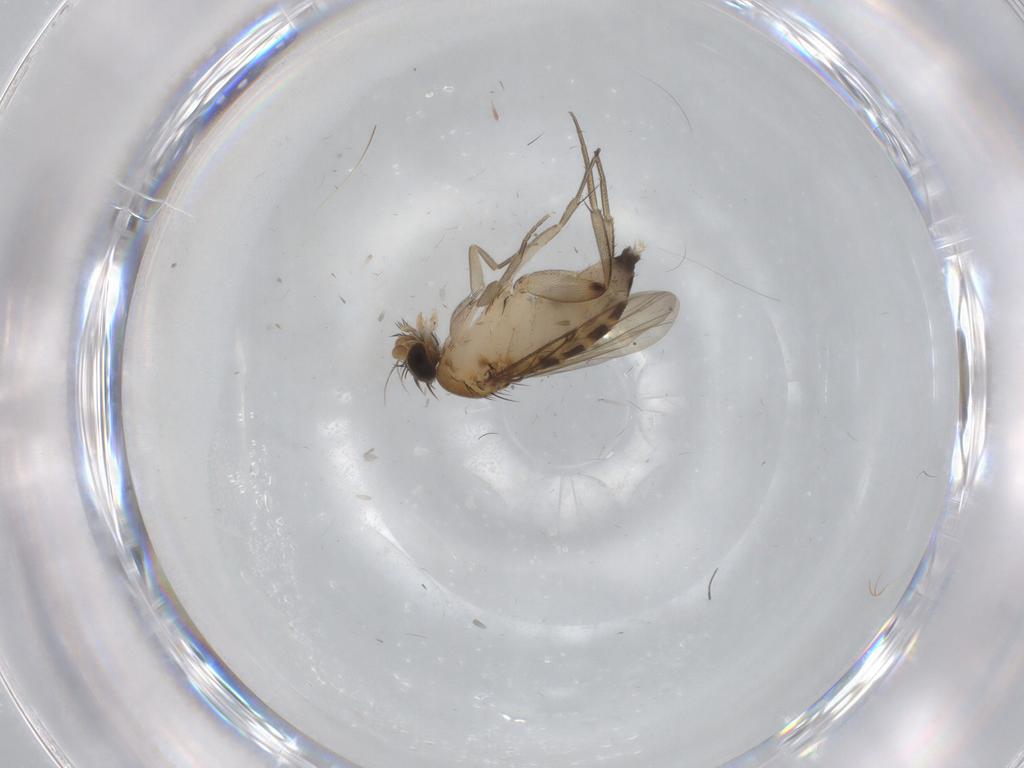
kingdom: Animalia
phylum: Arthropoda
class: Insecta
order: Diptera
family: Phoridae
